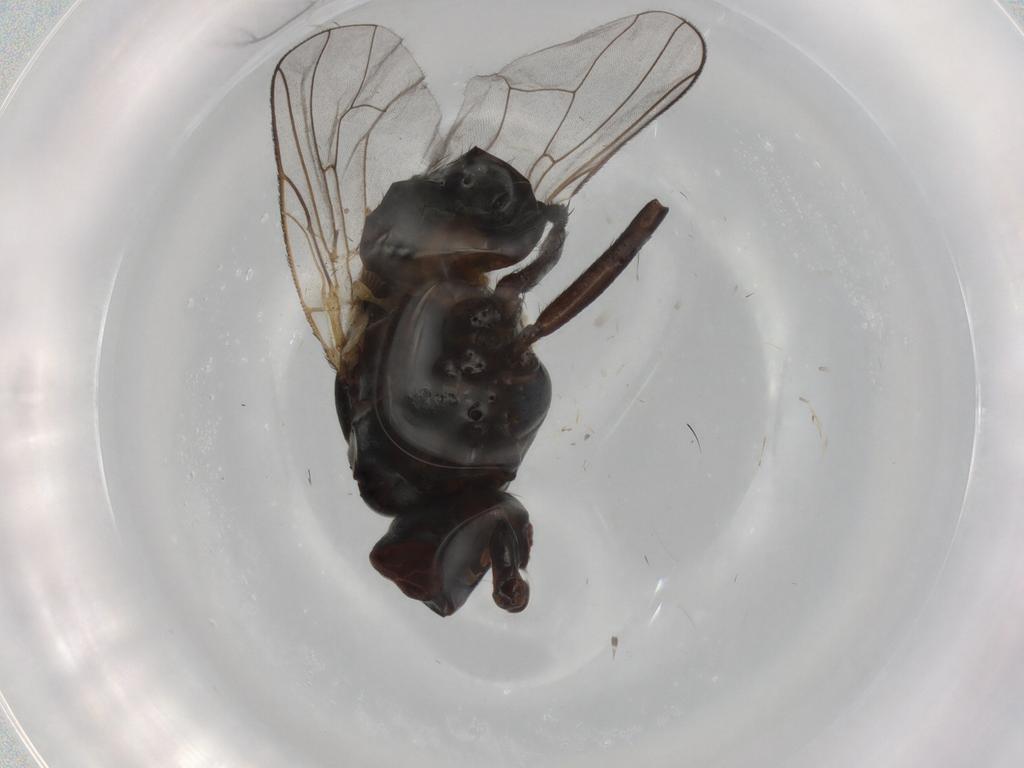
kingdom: Animalia
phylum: Arthropoda
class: Insecta
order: Diptera
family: Anthomyiidae
